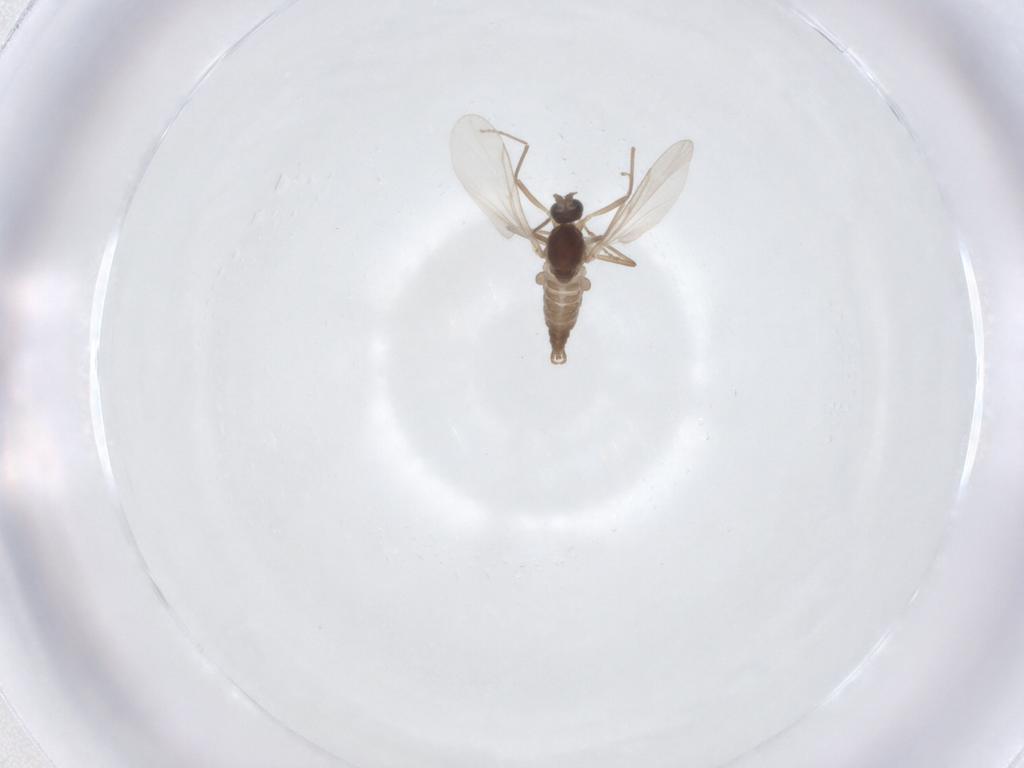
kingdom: Animalia
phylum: Arthropoda
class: Insecta
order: Diptera
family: Cecidomyiidae
